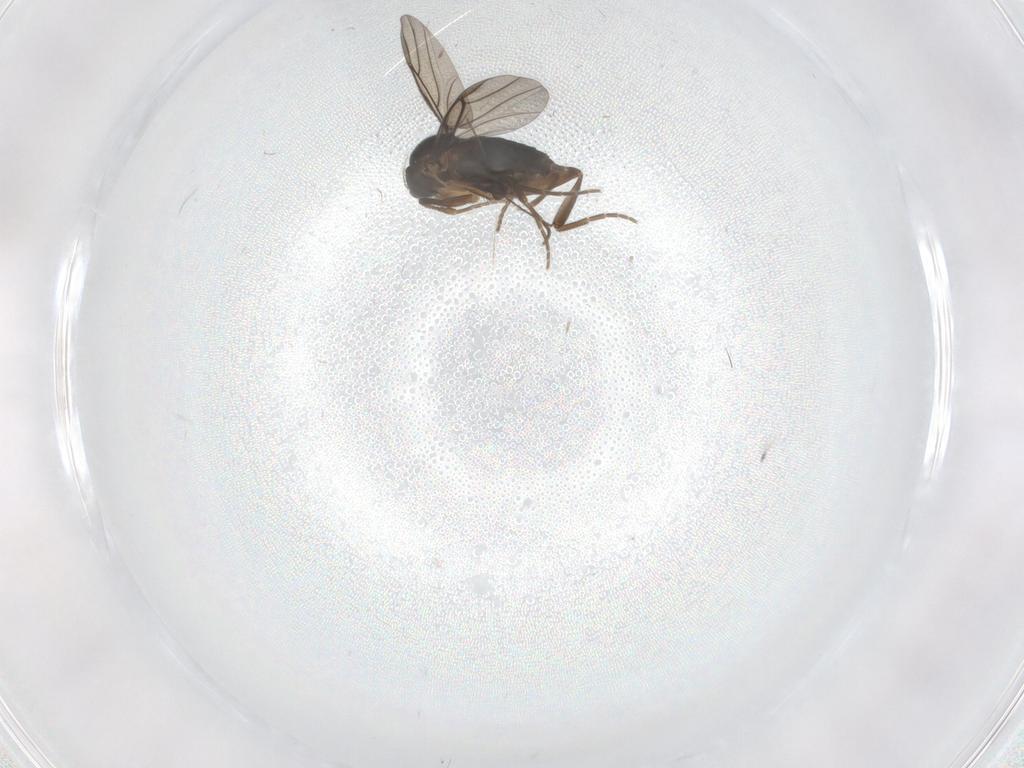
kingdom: Animalia
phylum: Arthropoda
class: Insecta
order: Diptera
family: Phoridae
